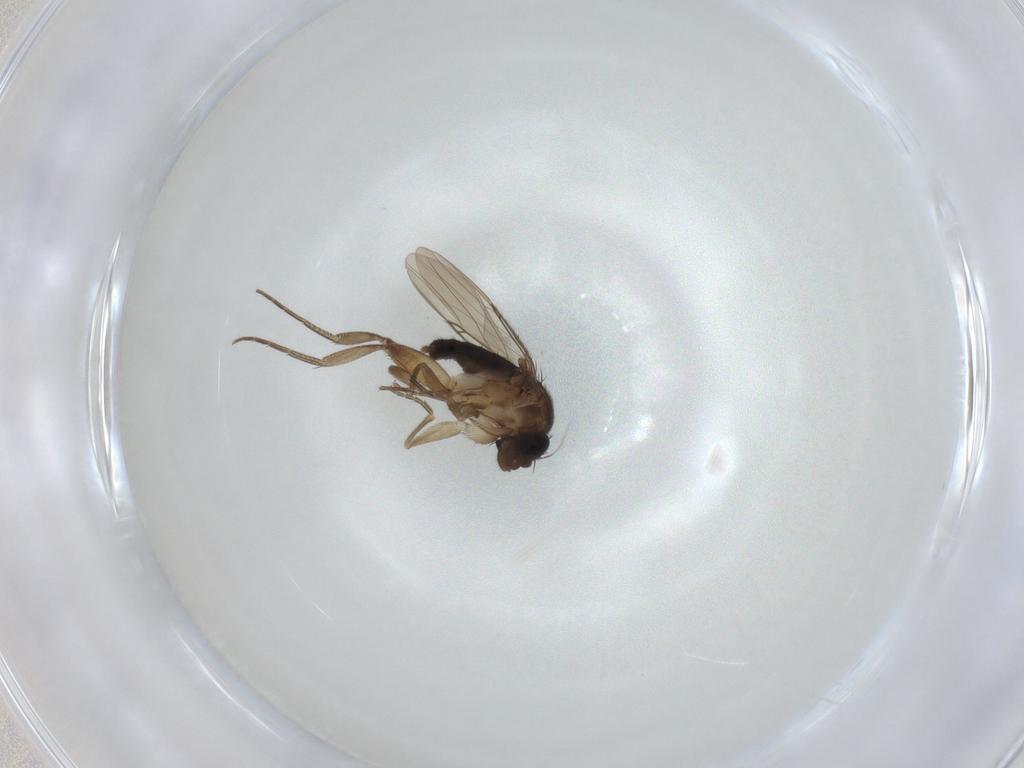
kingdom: Animalia
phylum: Arthropoda
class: Insecta
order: Diptera
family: Phoridae
